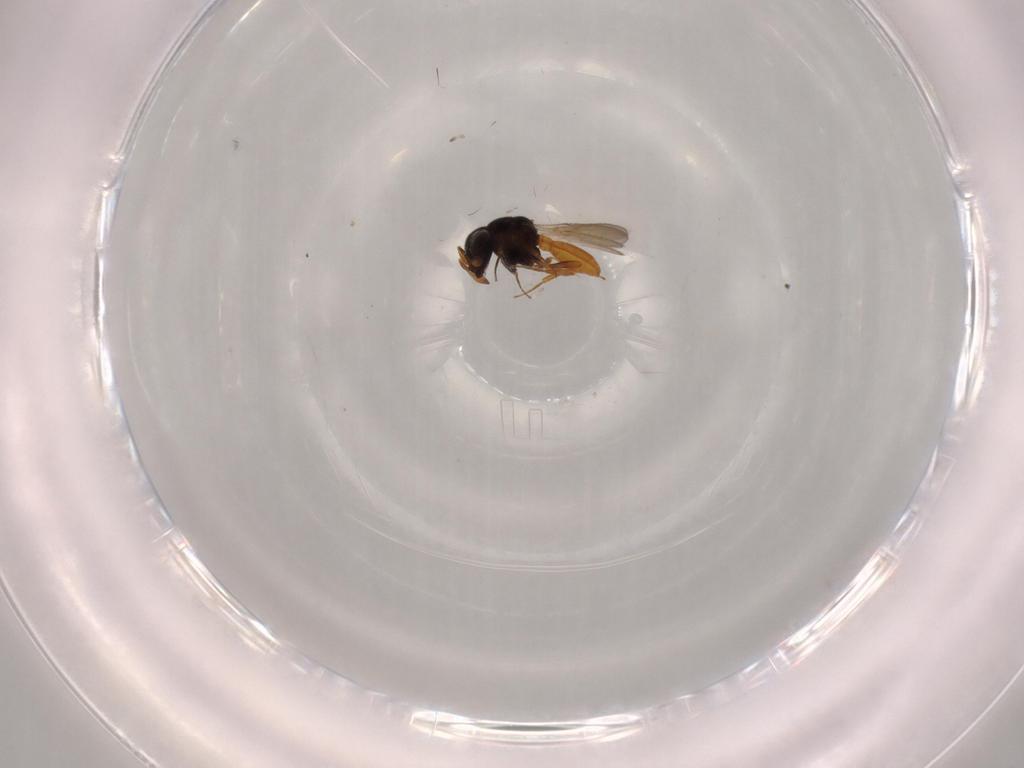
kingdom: Animalia
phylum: Arthropoda
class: Insecta
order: Hymenoptera
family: Scelionidae
